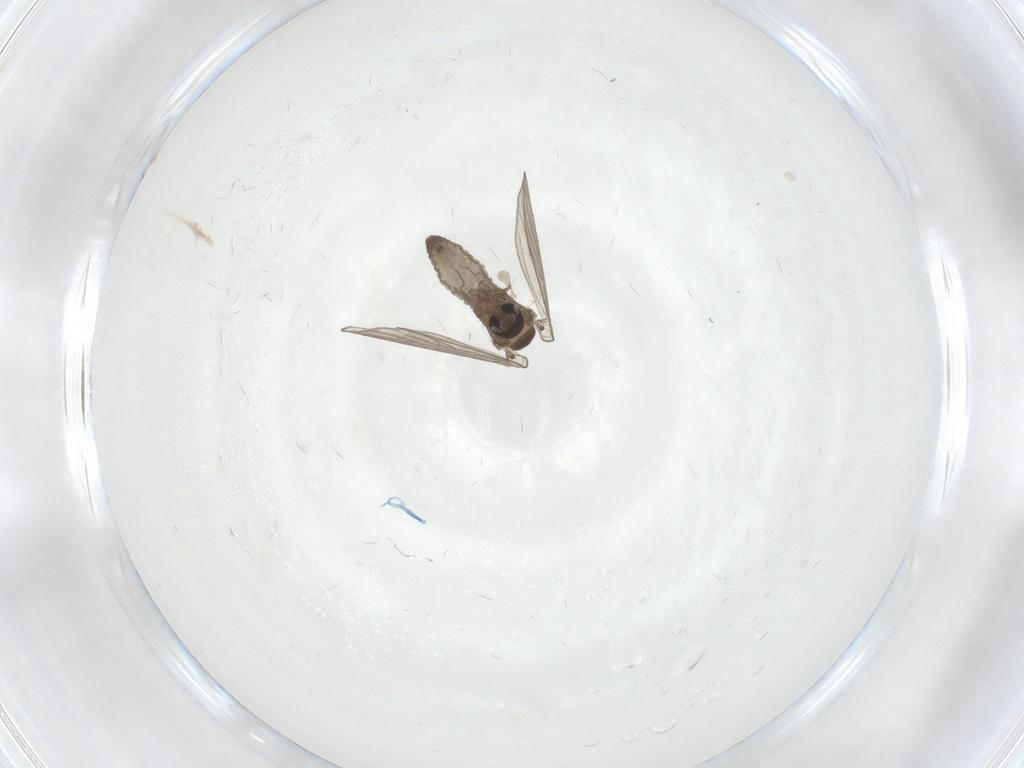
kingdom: Animalia
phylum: Arthropoda
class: Insecta
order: Diptera
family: Psychodidae
